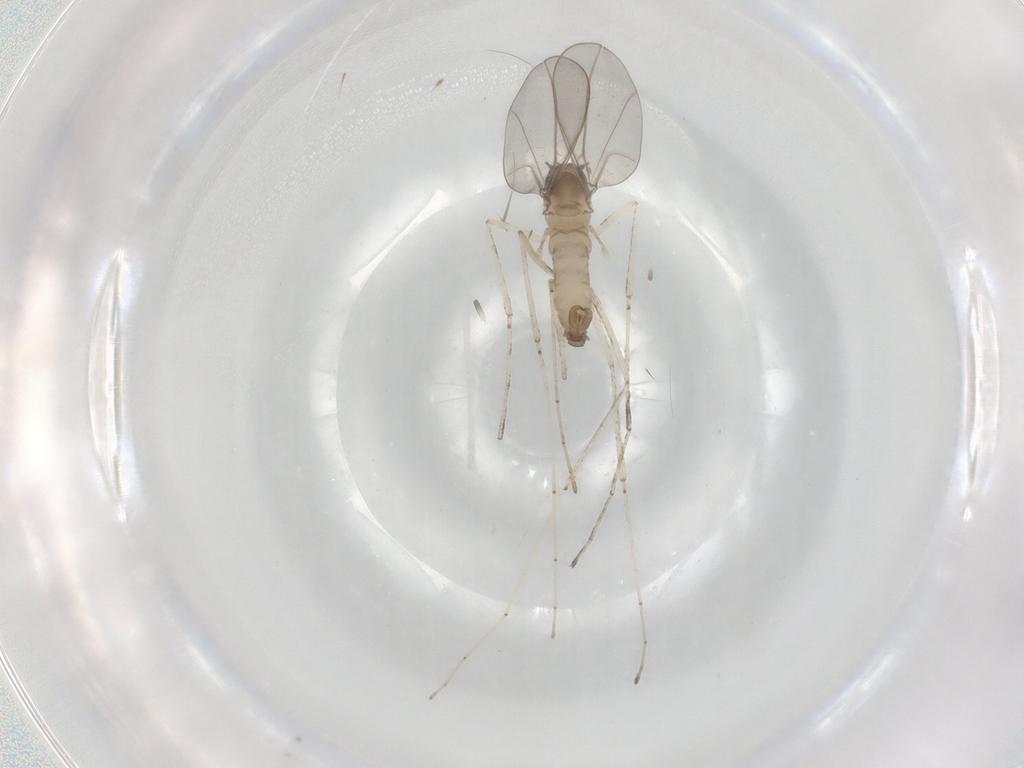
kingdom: Animalia
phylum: Arthropoda
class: Insecta
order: Diptera
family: Cecidomyiidae
